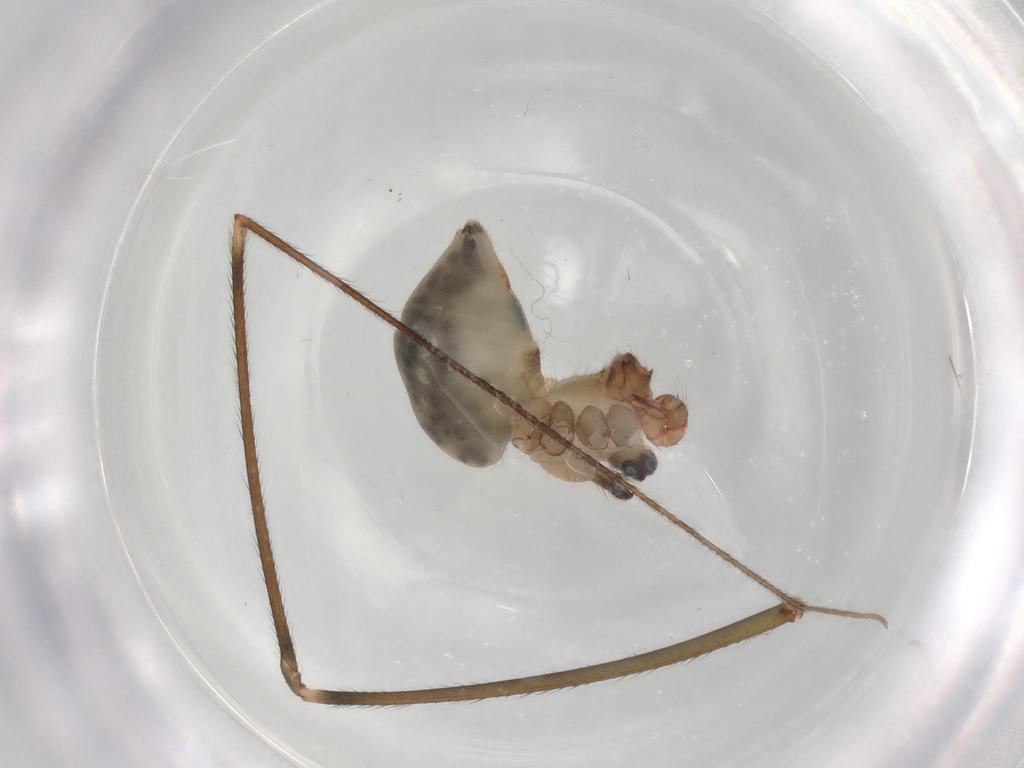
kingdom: Animalia
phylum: Arthropoda
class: Arachnida
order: Araneae
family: Pholcidae
